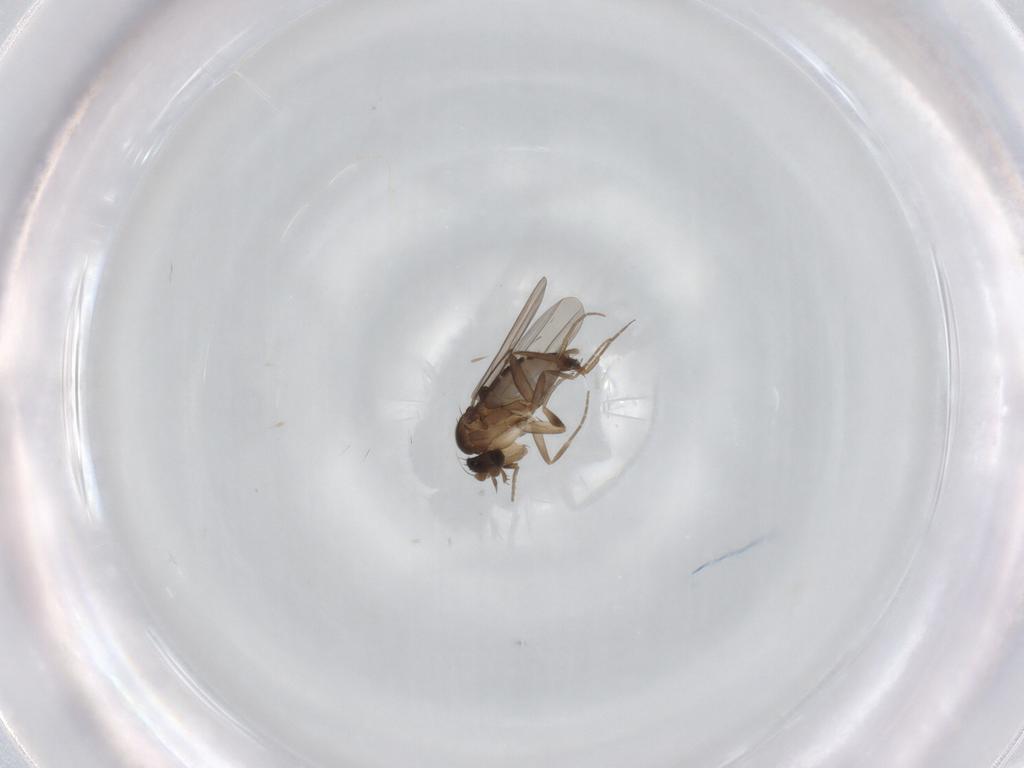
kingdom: Animalia
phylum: Arthropoda
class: Insecta
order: Diptera
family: Phoridae
